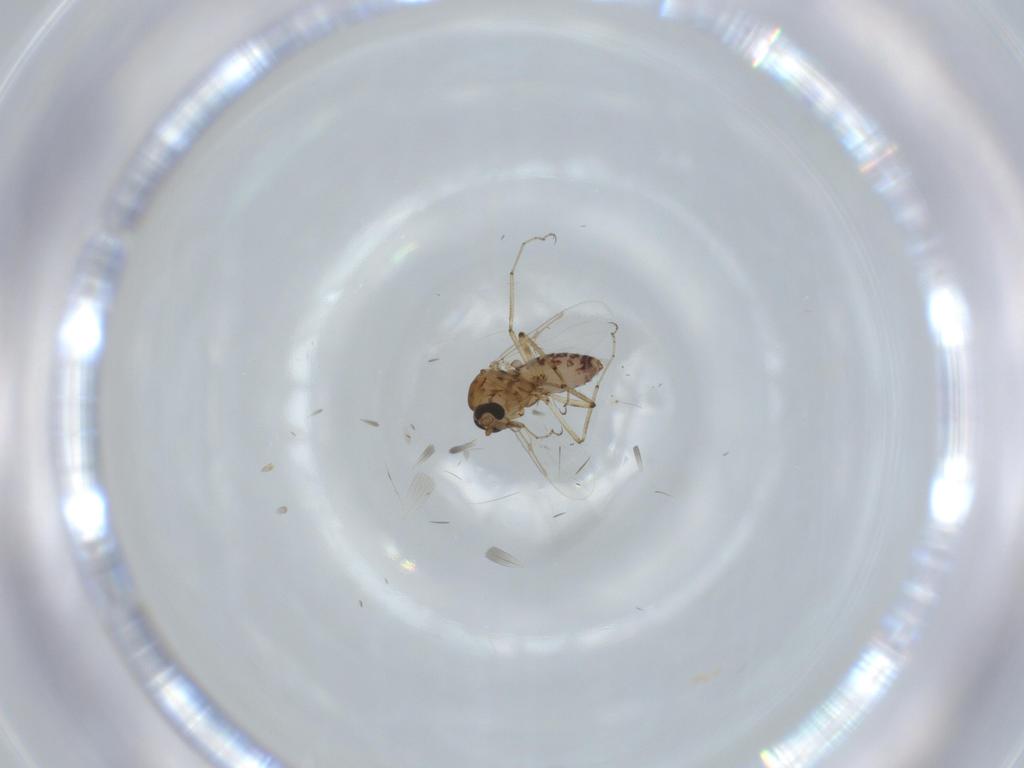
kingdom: Animalia
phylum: Arthropoda
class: Insecta
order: Diptera
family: Ceratopogonidae
